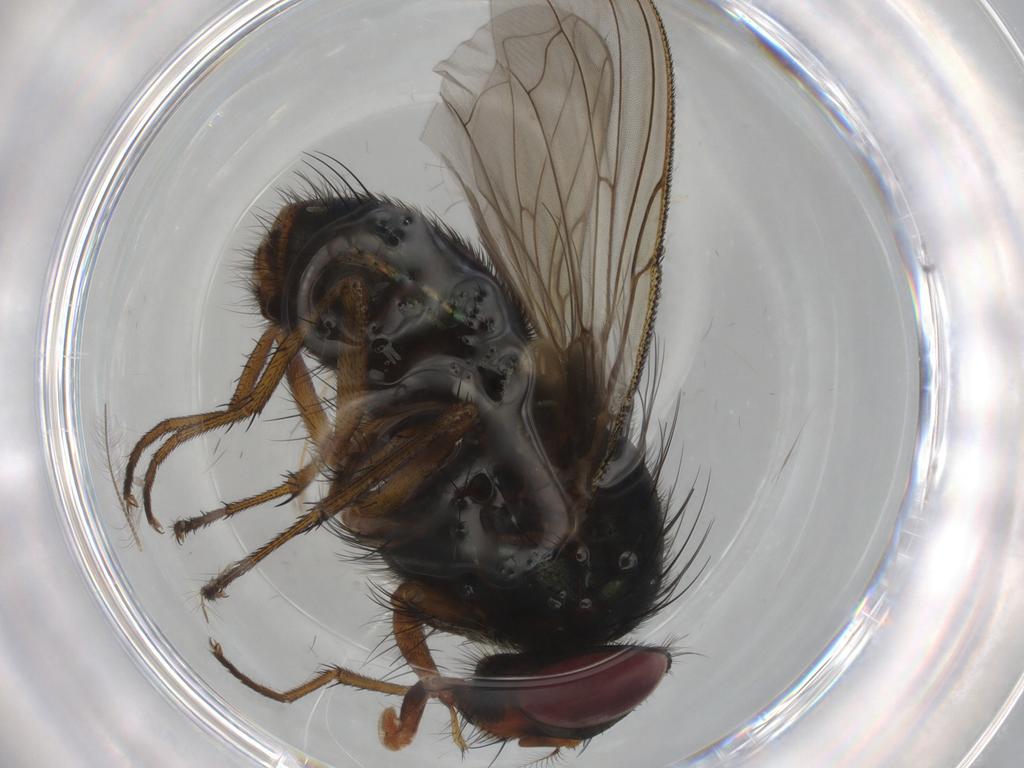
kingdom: Animalia
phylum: Arthropoda
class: Insecta
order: Diptera
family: Calliphoridae
